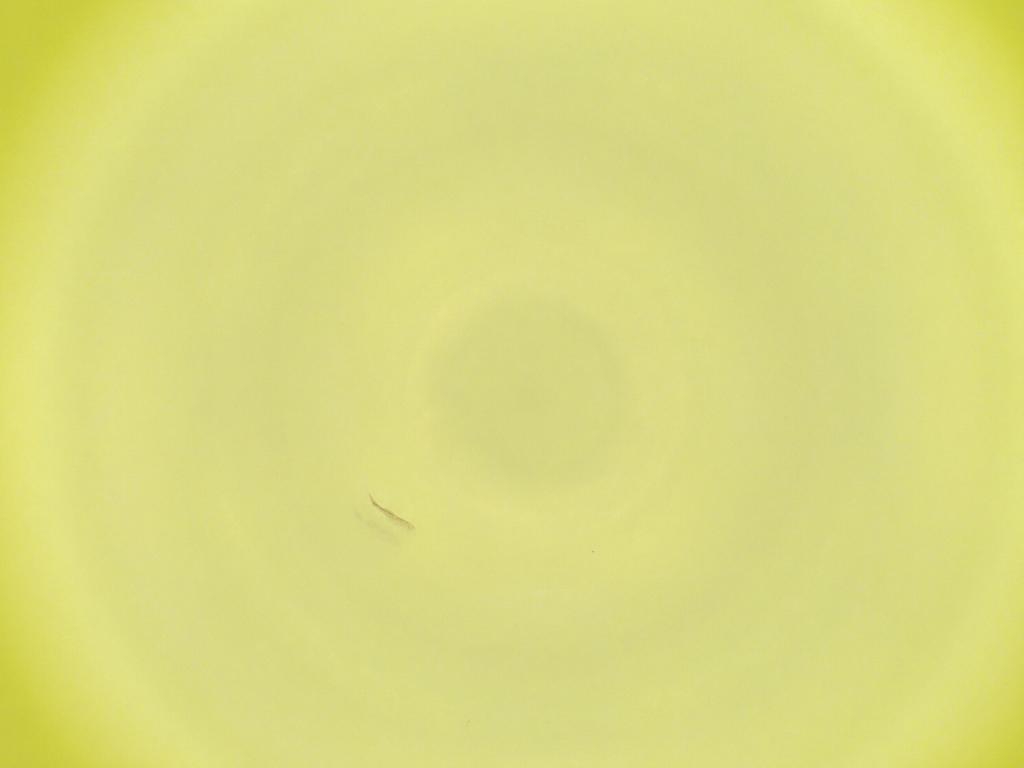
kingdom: Animalia
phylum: Arthropoda
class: Insecta
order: Diptera
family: Cecidomyiidae
